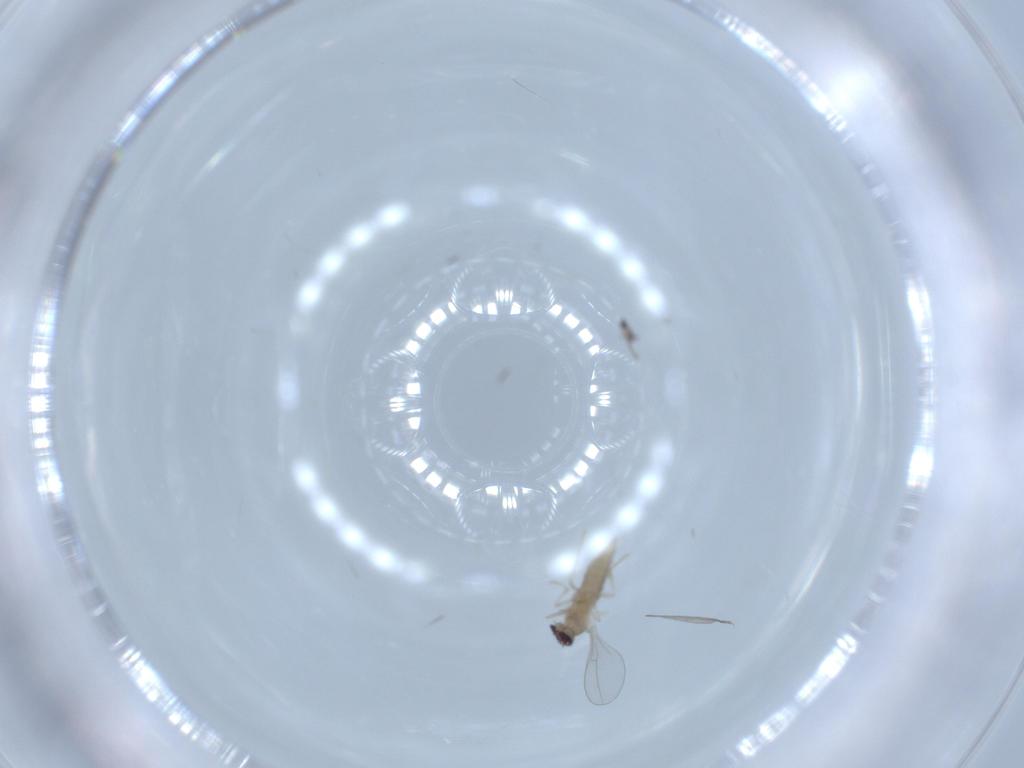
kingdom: Animalia
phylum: Arthropoda
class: Insecta
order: Diptera
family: Cecidomyiidae
